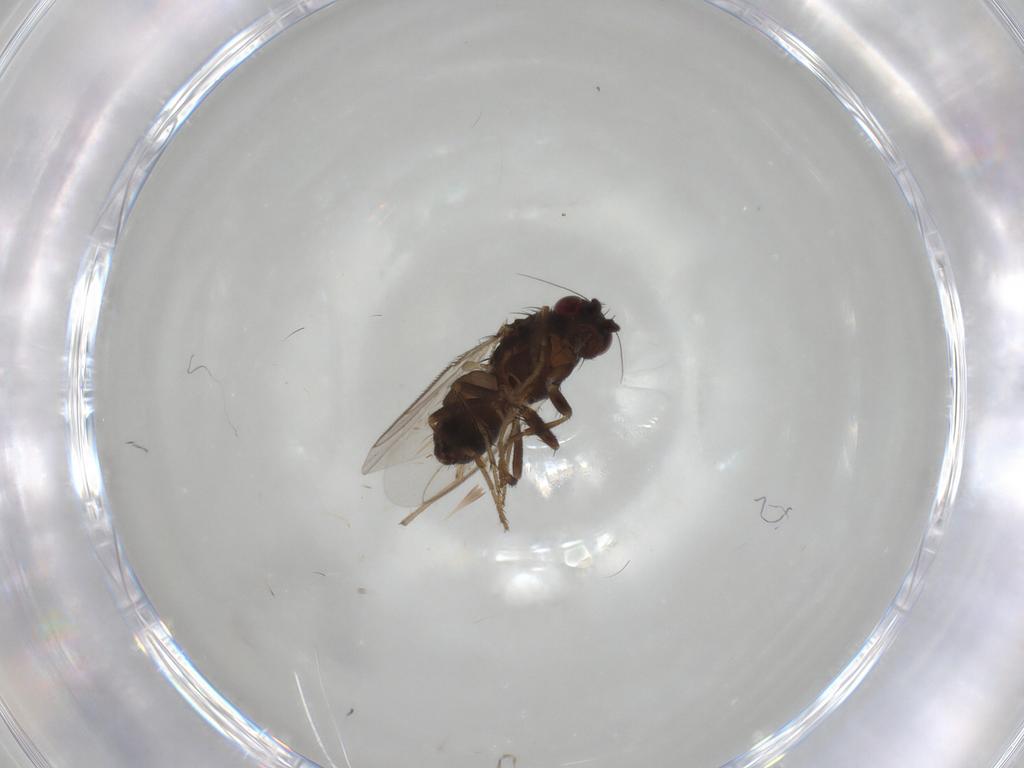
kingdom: Animalia
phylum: Arthropoda
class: Insecta
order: Diptera
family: Sphaeroceridae
